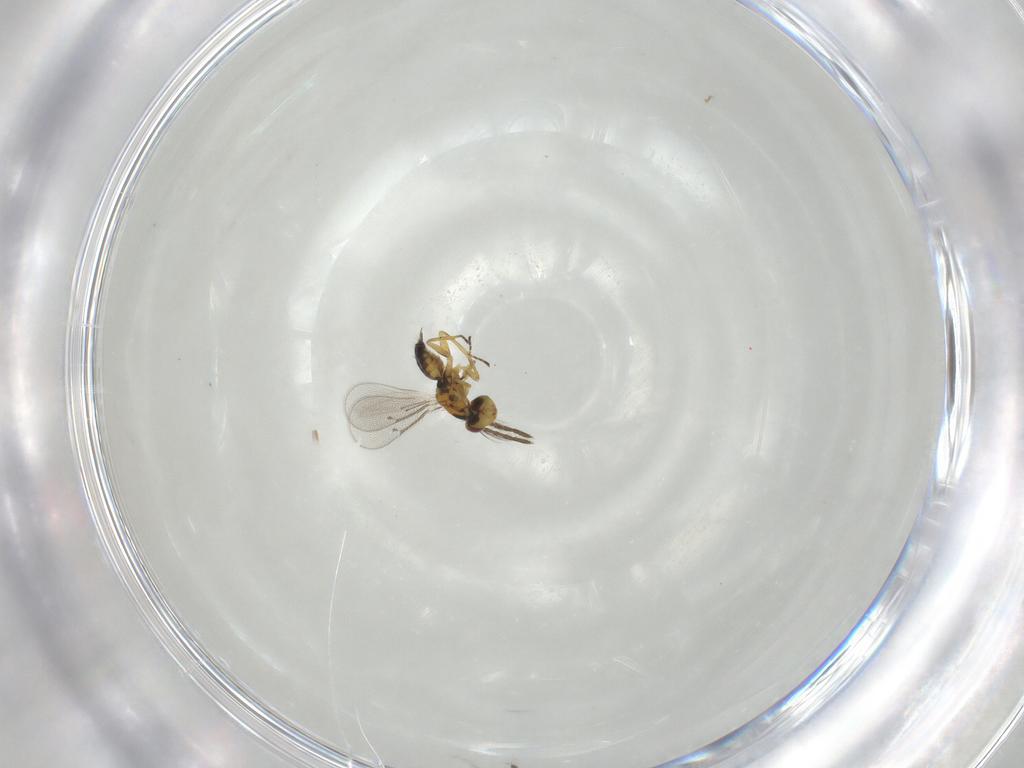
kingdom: Animalia
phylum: Arthropoda
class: Insecta
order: Hymenoptera
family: Eulophidae
